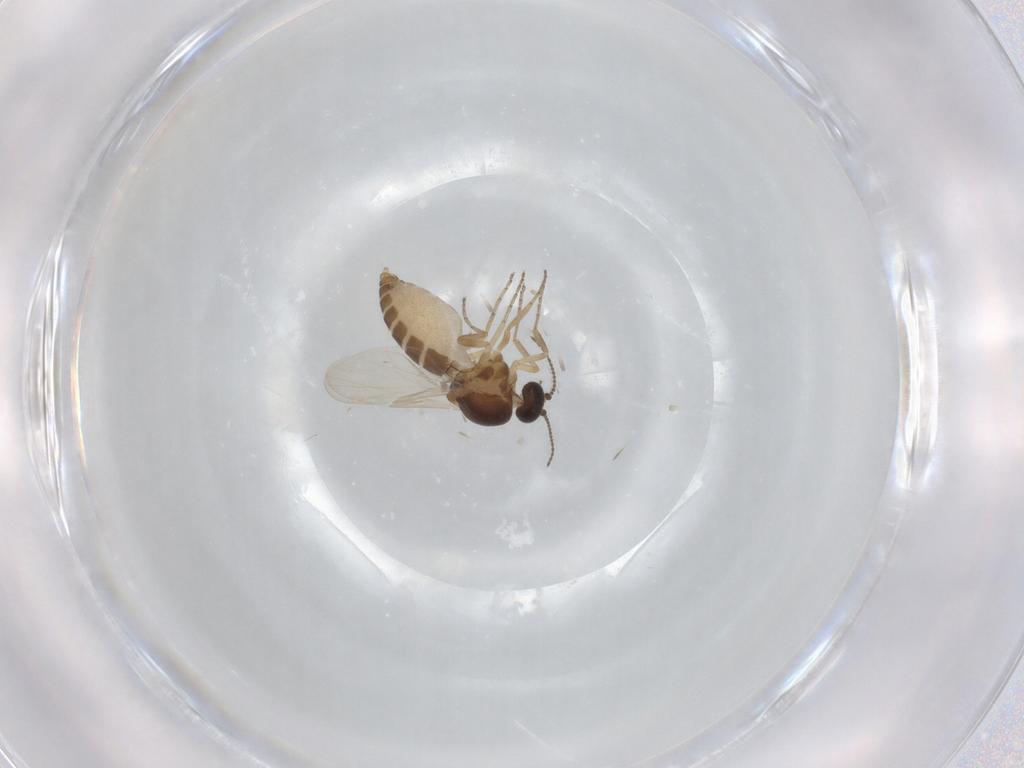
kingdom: Animalia
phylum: Arthropoda
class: Insecta
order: Diptera
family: Ceratopogonidae
